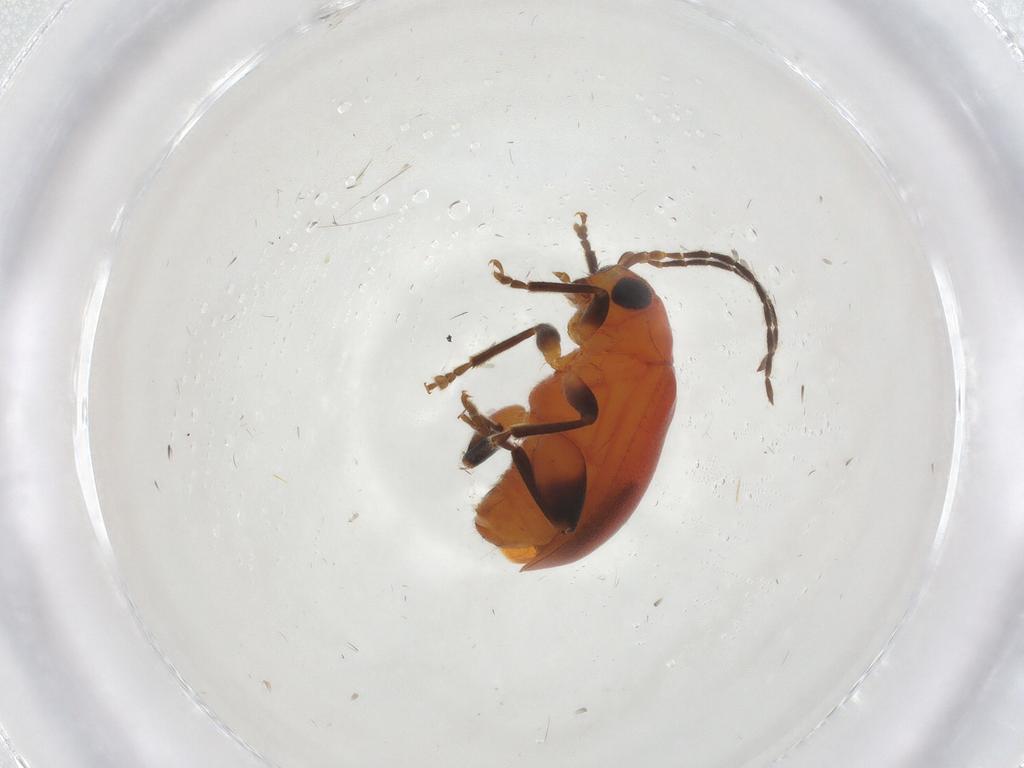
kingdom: Animalia
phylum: Arthropoda
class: Insecta
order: Coleoptera
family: Chrysomelidae
